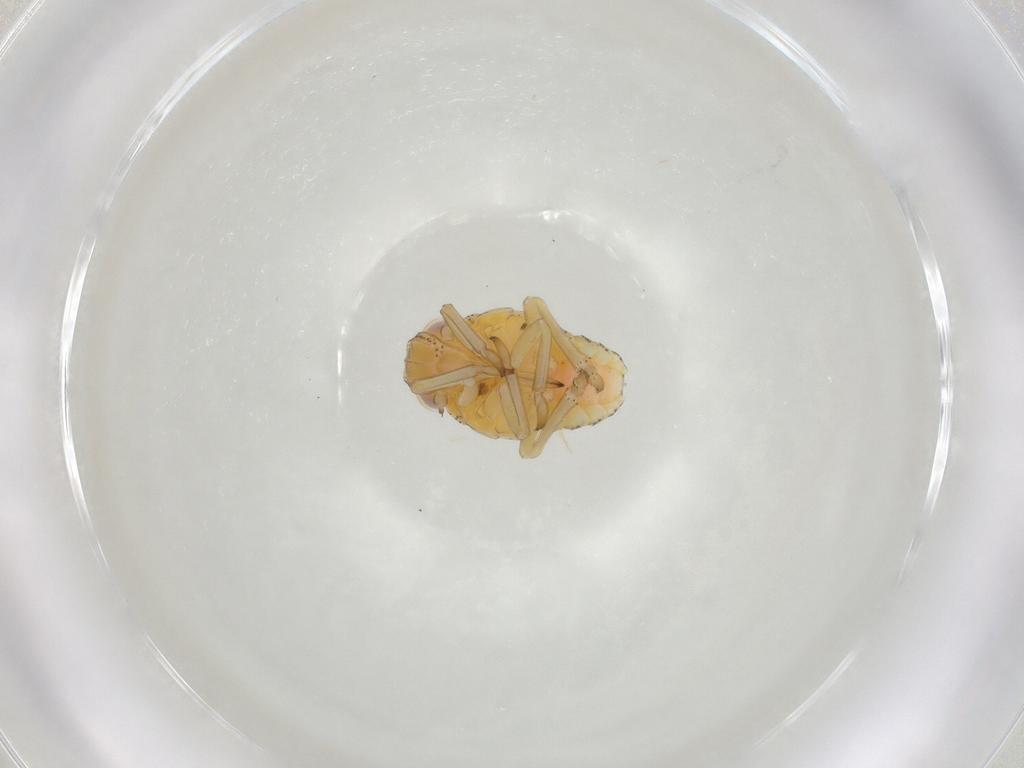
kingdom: Animalia
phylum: Arthropoda
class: Insecta
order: Hemiptera
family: Tropiduchidae
